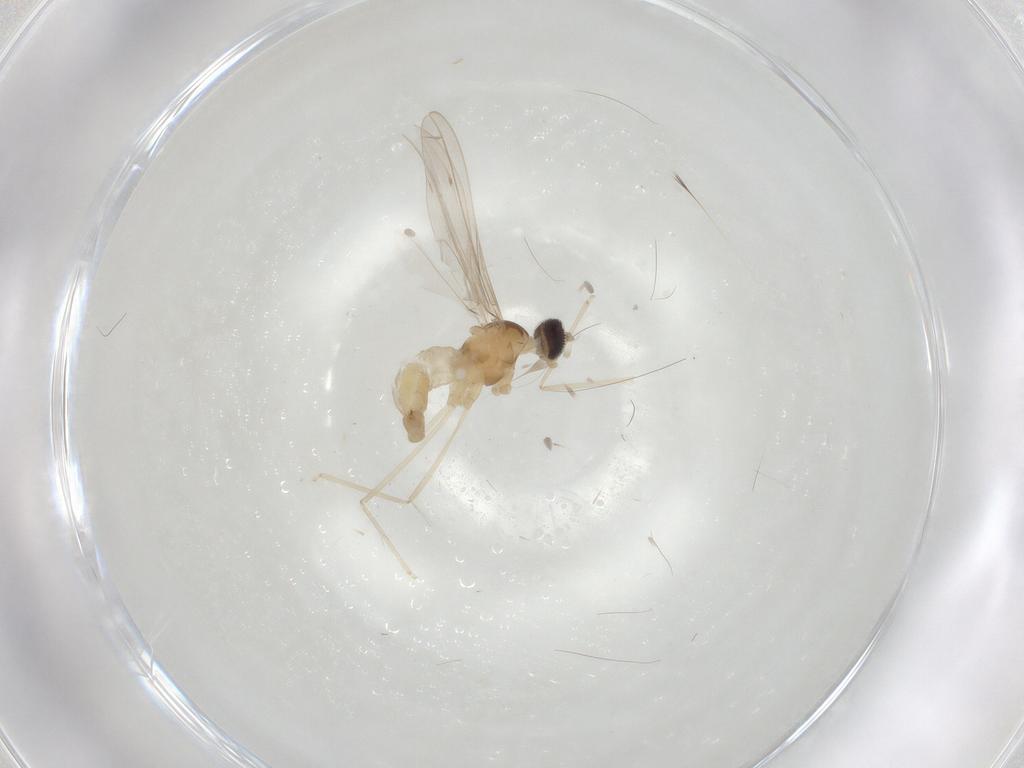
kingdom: Animalia
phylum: Arthropoda
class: Insecta
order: Diptera
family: Cecidomyiidae
